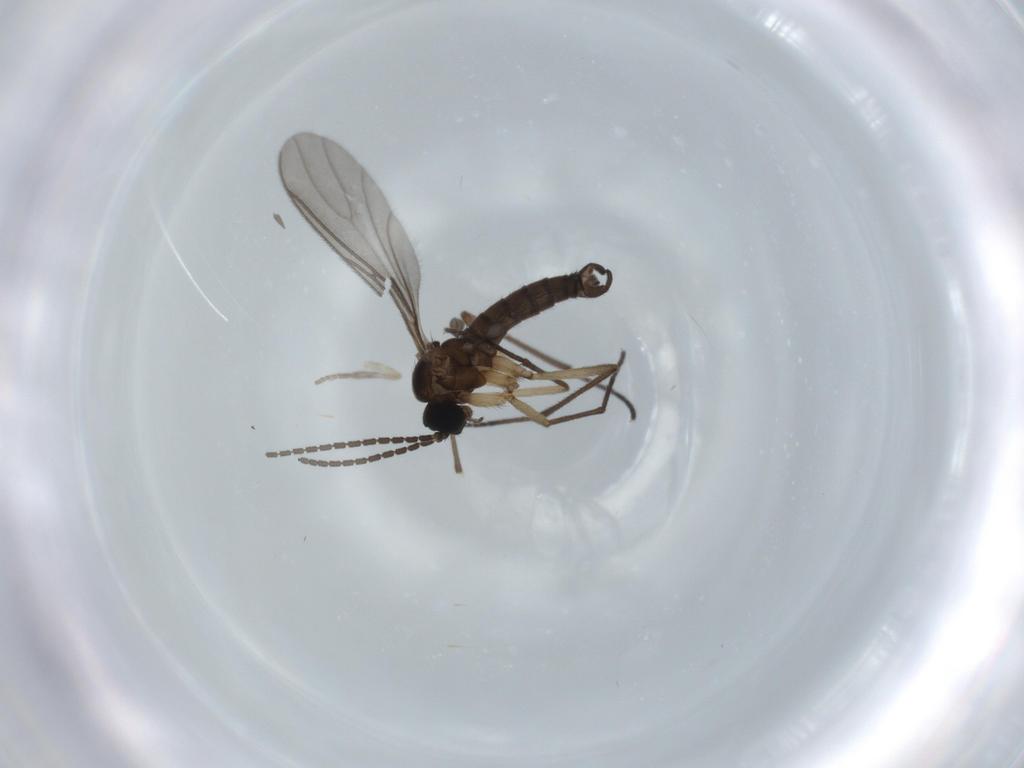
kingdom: Animalia
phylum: Arthropoda
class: Insecta
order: Diptera
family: Sciaridae
